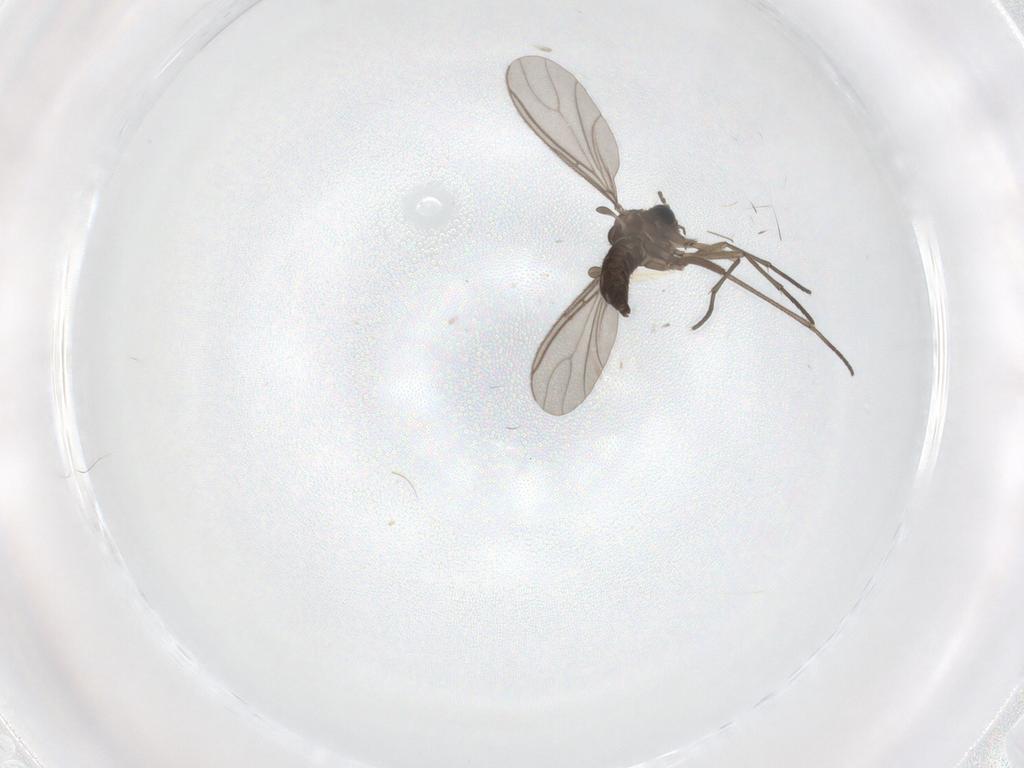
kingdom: Animalia
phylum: Arthropoda
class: Insecta
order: Diptera
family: Sciaridae
